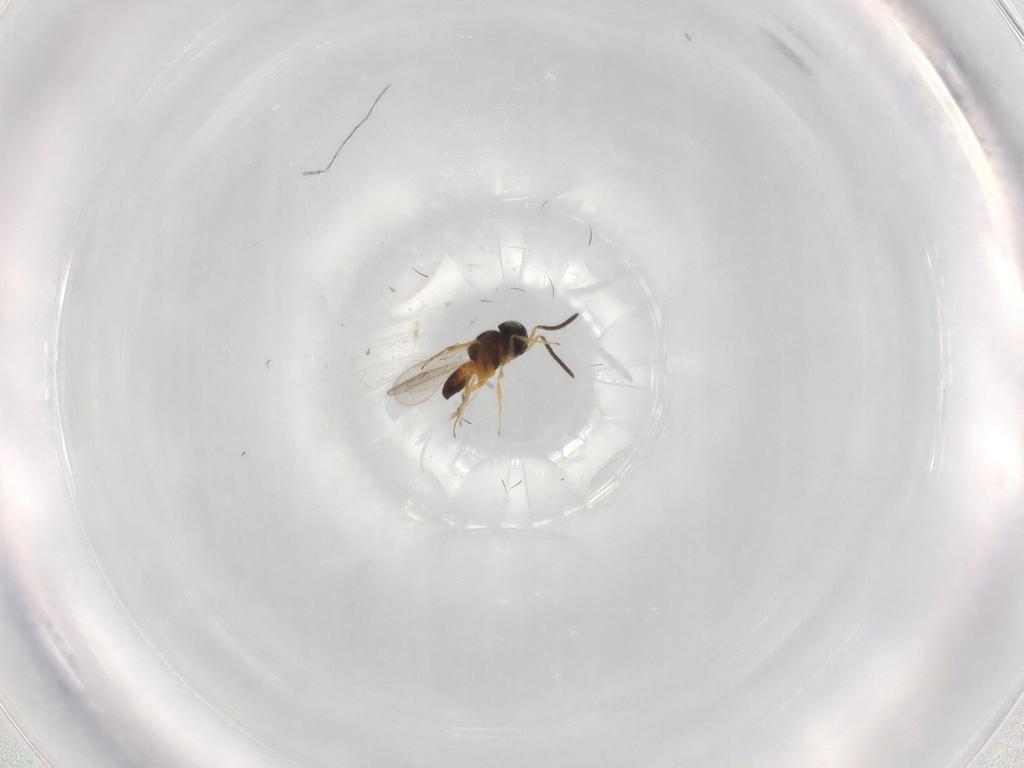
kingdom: Animalia
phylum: Arthropoda
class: Insecta
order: Hymenoptera
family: Scelionidae
